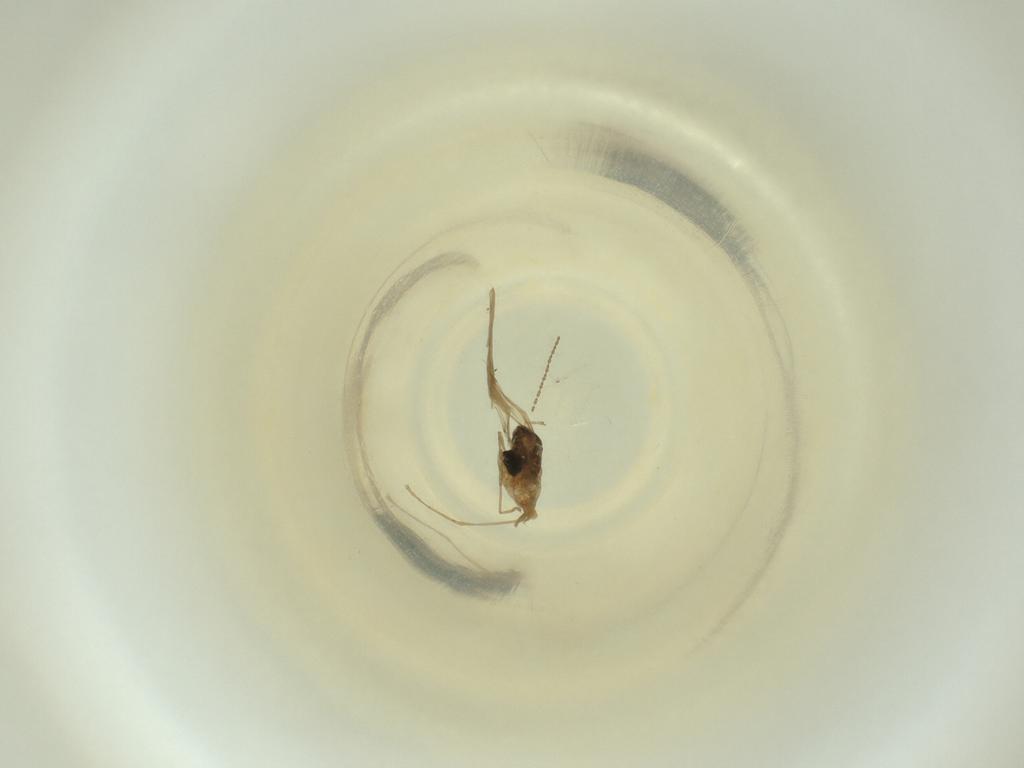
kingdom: Animalia
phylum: Arthropoda
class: Insecta
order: Diptera
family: Cecidomyiidae
